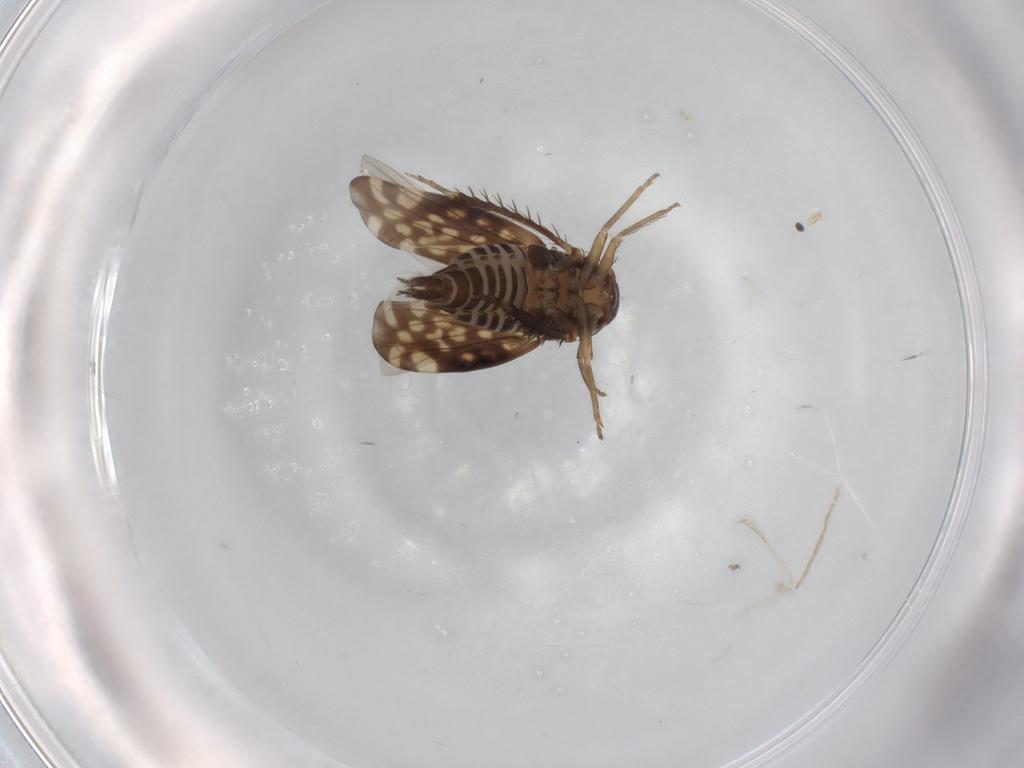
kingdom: Animalia
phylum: Arthropoda
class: Insecta
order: Hemiptera
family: Cicadellidae
